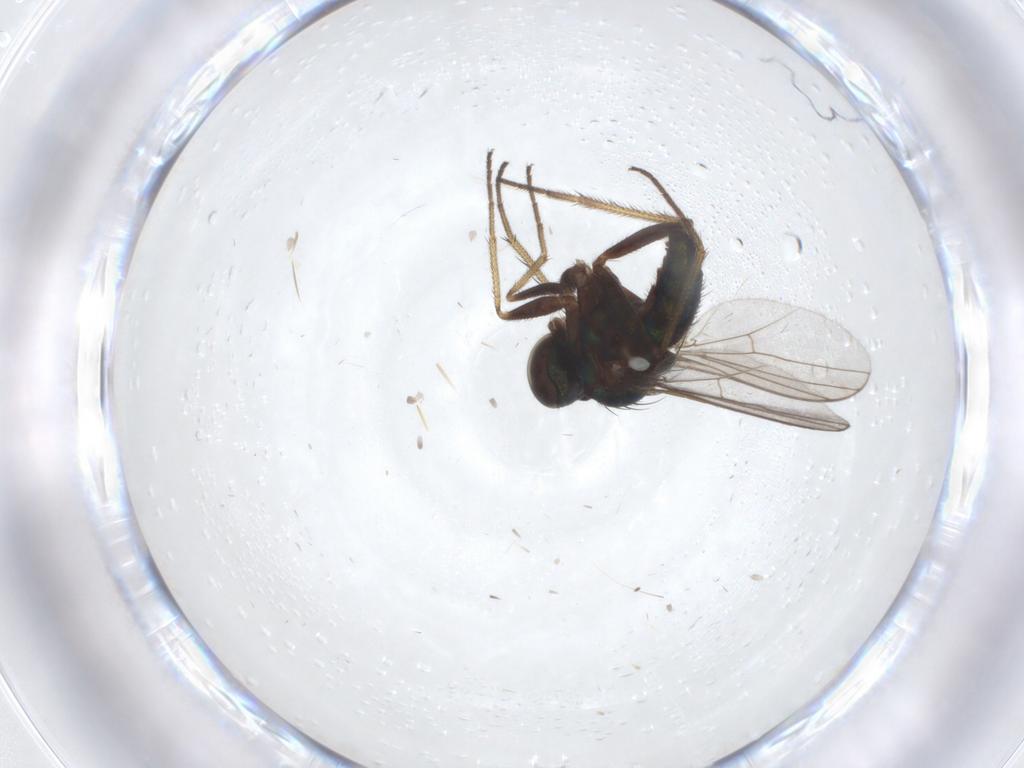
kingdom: Animalia
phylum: Arthropoda
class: Insecta
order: Diptera
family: Dolichopodidae
